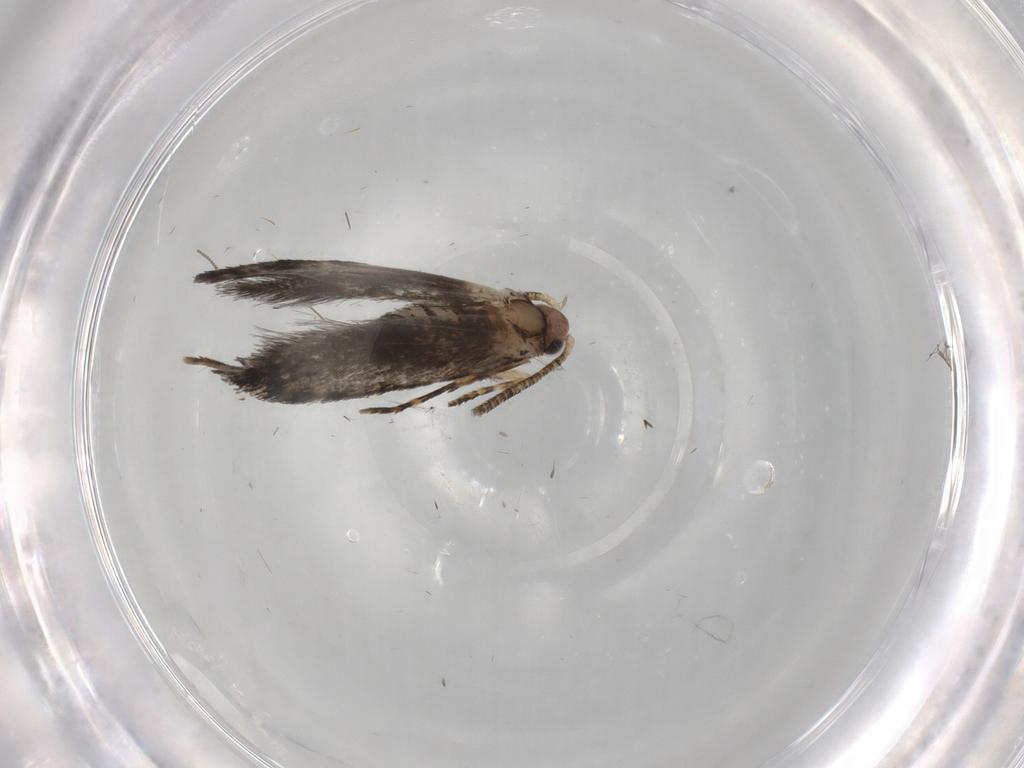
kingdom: Animalia
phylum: Arthropoda
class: Insecta
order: Lepidoptera
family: Tineidae
